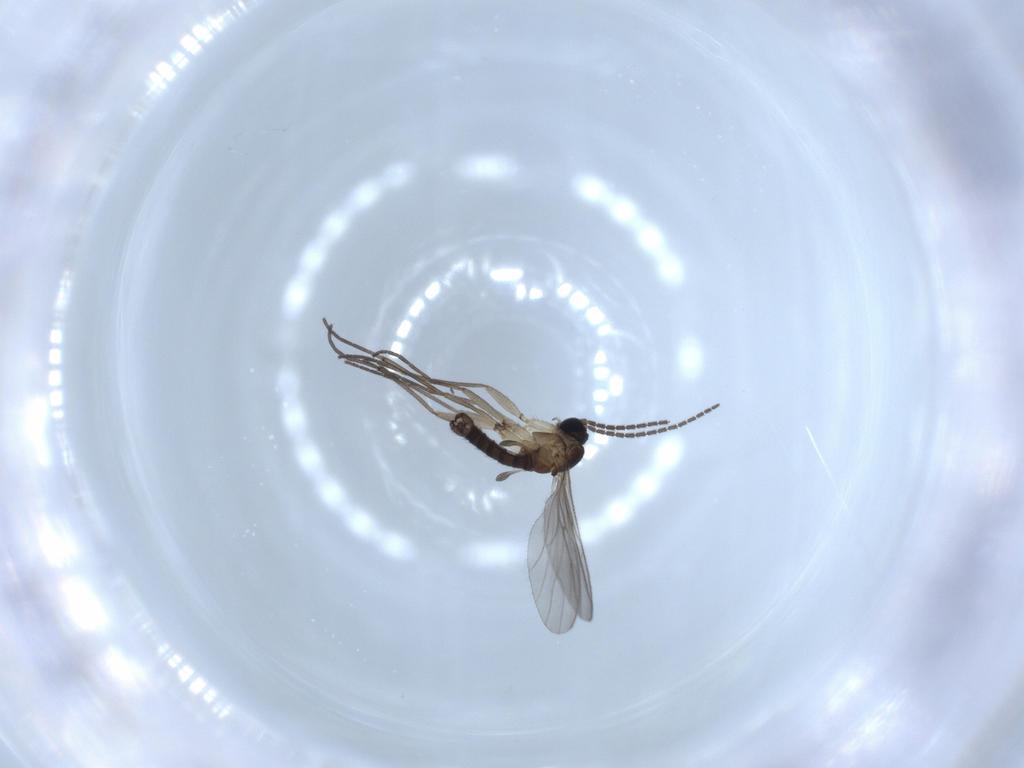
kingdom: Animalia
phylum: Arthropoda
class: Insecta
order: Diptera
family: Sciaridae
